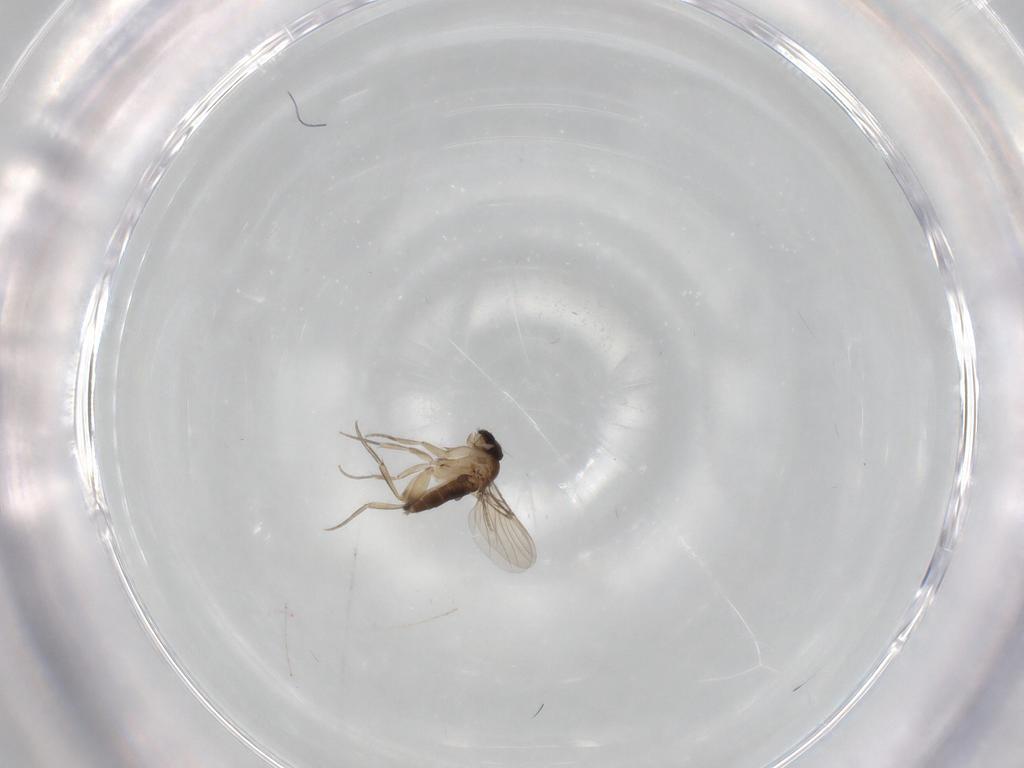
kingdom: Animalia
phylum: Arthropoda
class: Insecta
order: Diptera
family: Phoridae
